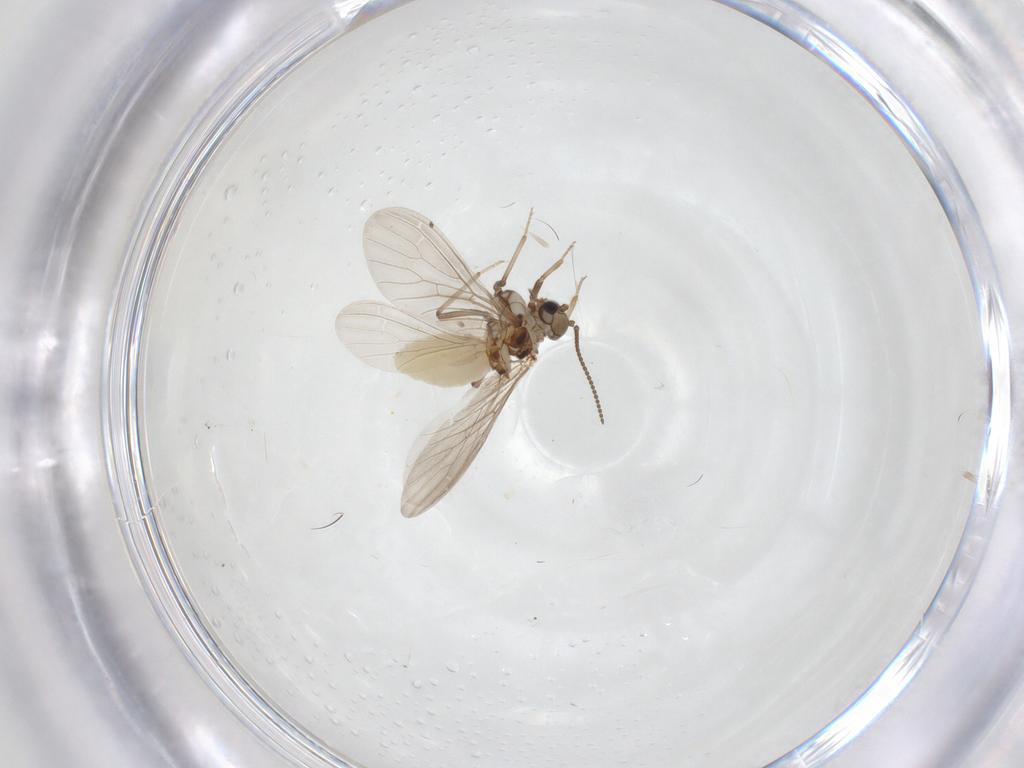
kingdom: Animalia
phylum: Arthropoda
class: Insecta
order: Neuroptera
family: Coniopterygidae
